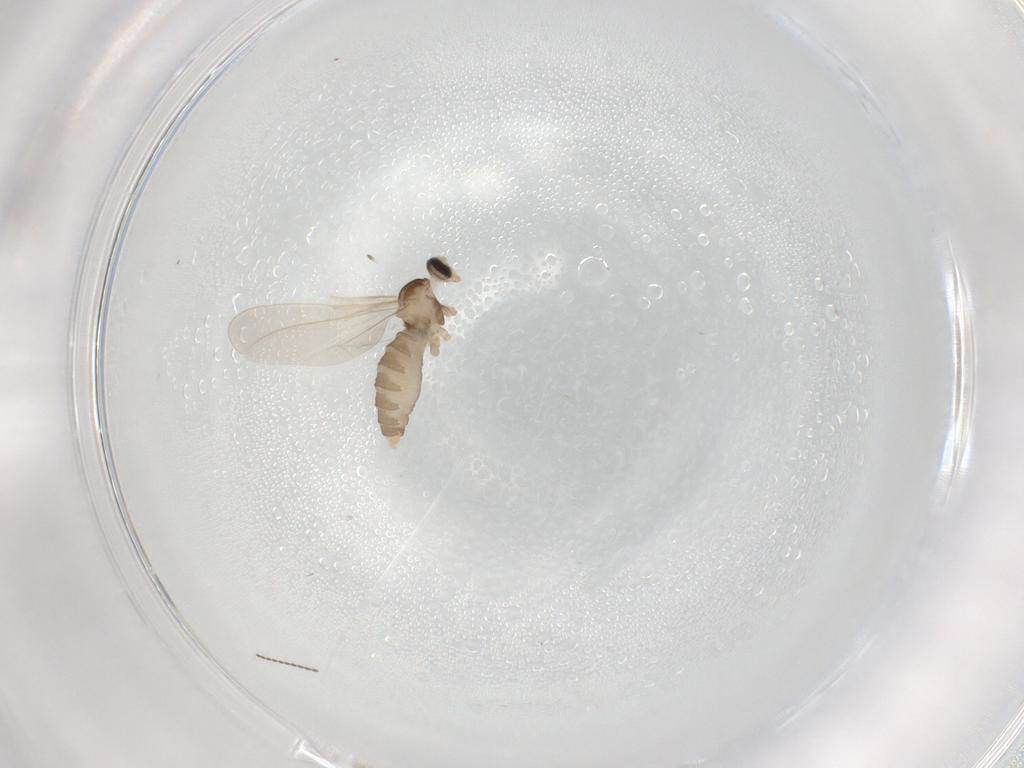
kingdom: Animalia
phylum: Arthropoda
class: Insecta
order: Diptera
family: Cecidomyiidae
